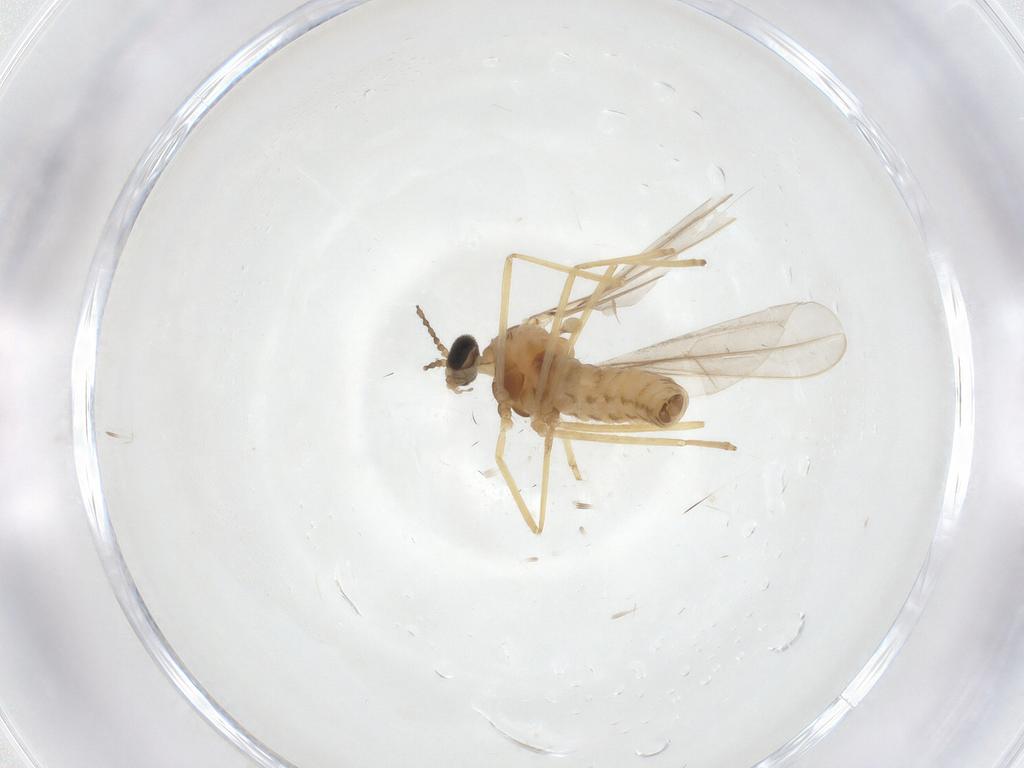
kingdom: Animalia
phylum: Arthropoda
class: Insecta
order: Diptera
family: Cecidomyiidae
